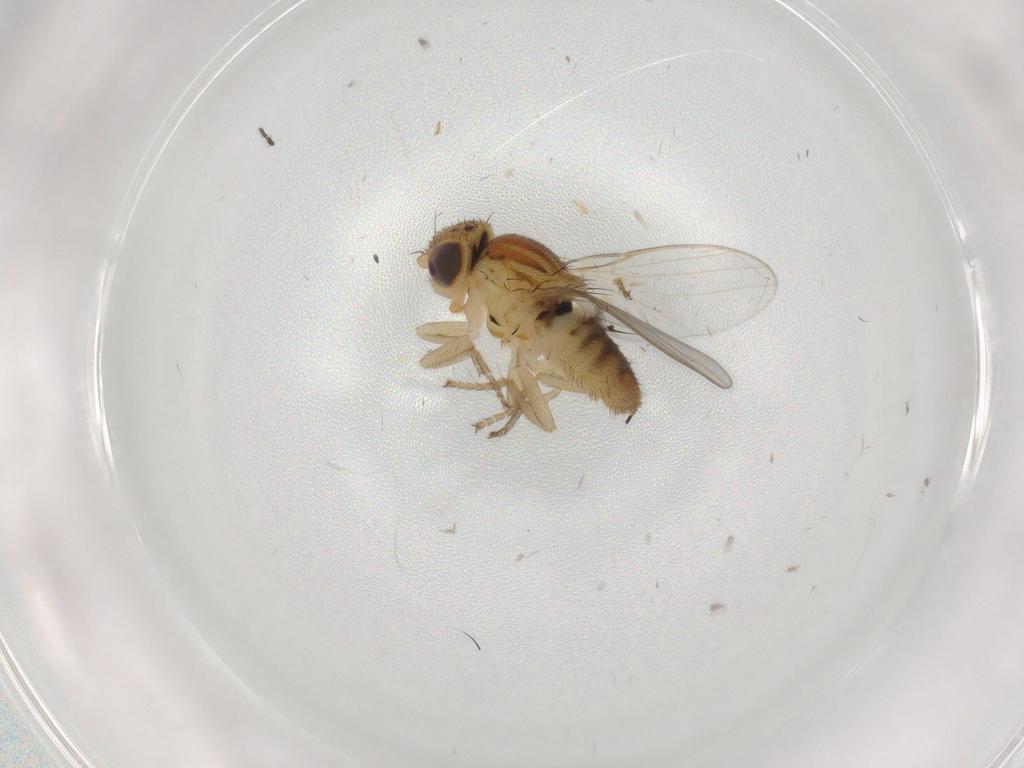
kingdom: Animalia
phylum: Arthropoda
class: Insecta
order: Diptera
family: Chloropidae
